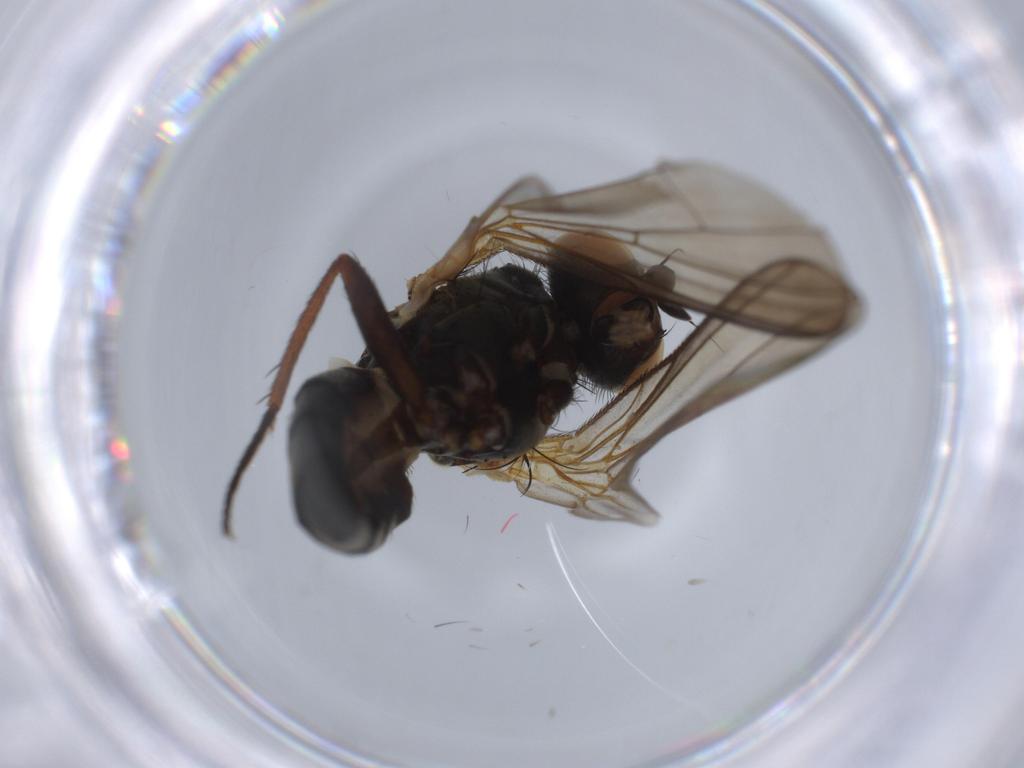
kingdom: Animalia
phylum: Arthropoda
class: Insecta
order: Diptera
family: Anthomyiidae
